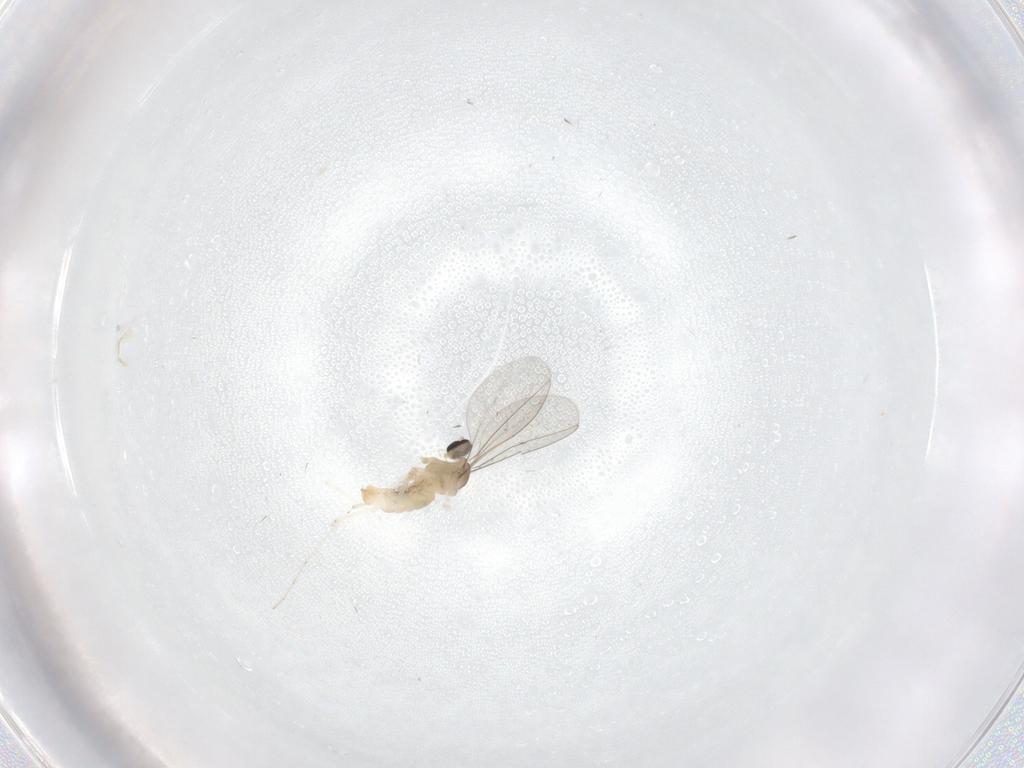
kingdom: Animalia
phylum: Arthropoda
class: Insecta
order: Diptera
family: Cecidomyiidae
